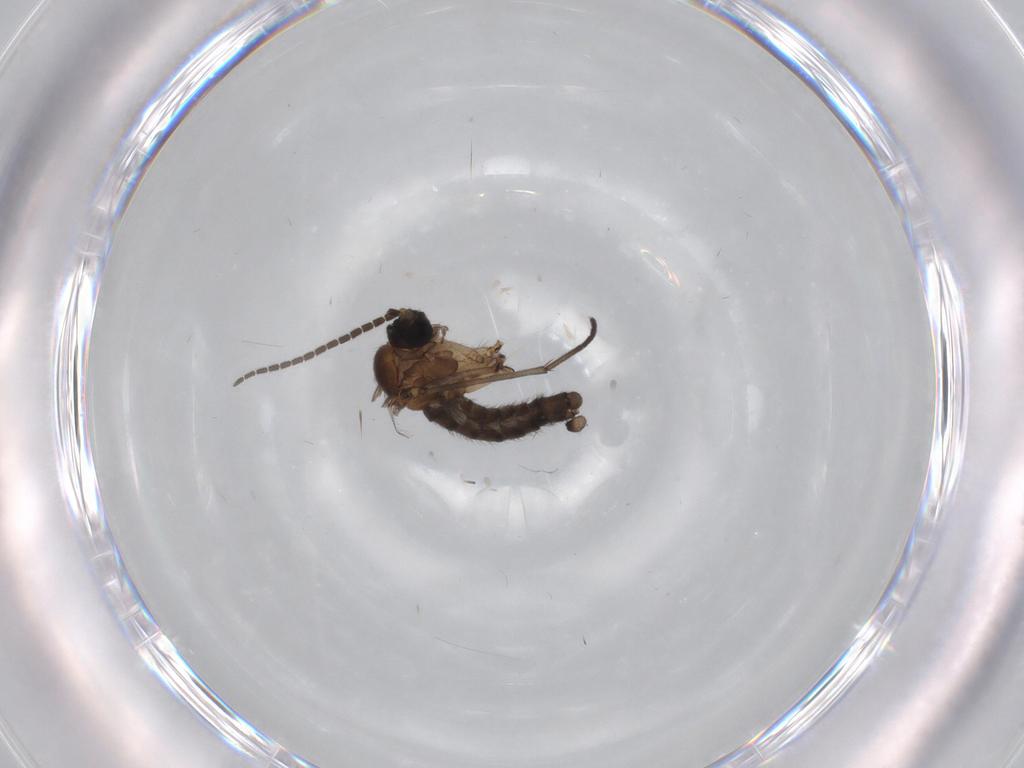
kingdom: Animalia
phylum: Arthropoda
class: Insecta
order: Diptera
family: Sciaridae
